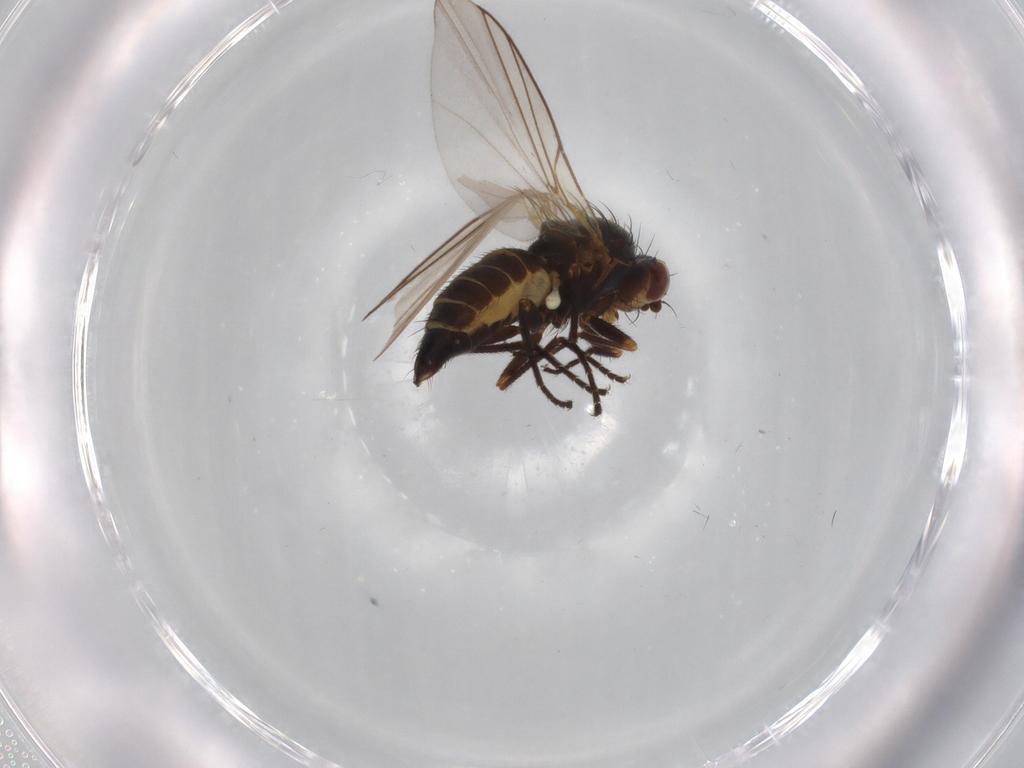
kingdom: Animalia
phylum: Arthropoda
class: Insecta
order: Diptera
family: Agromyzidae
